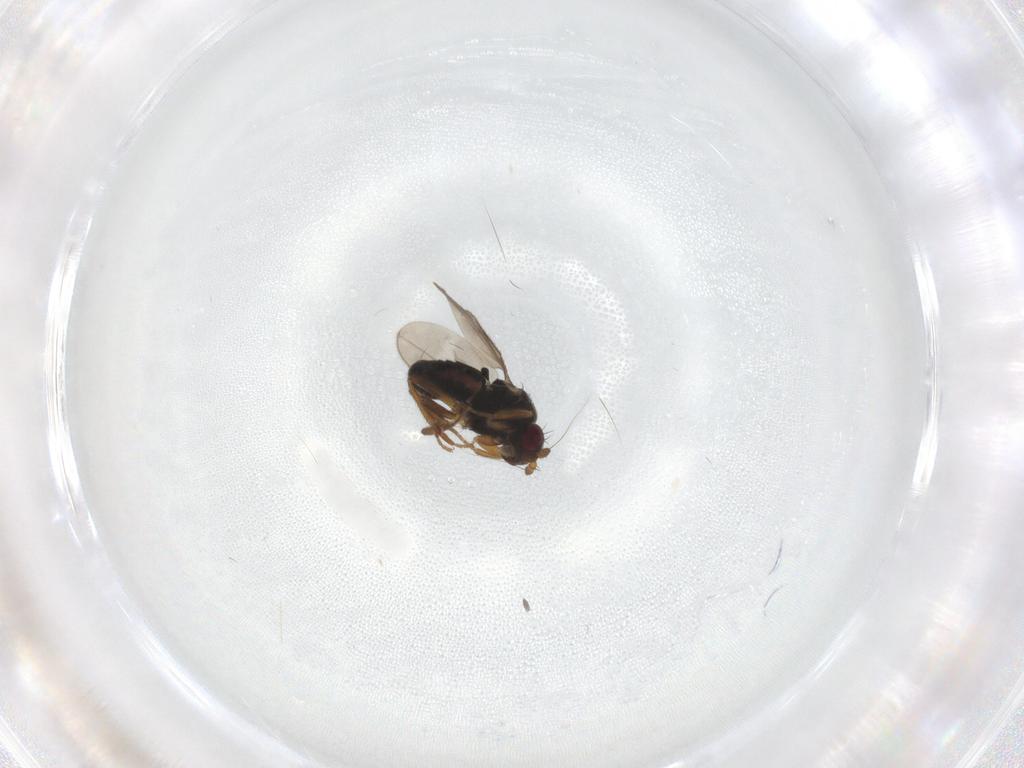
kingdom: Animalia
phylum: Arthropoda
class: Insecta
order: Diptera
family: Sphaeroceridae
